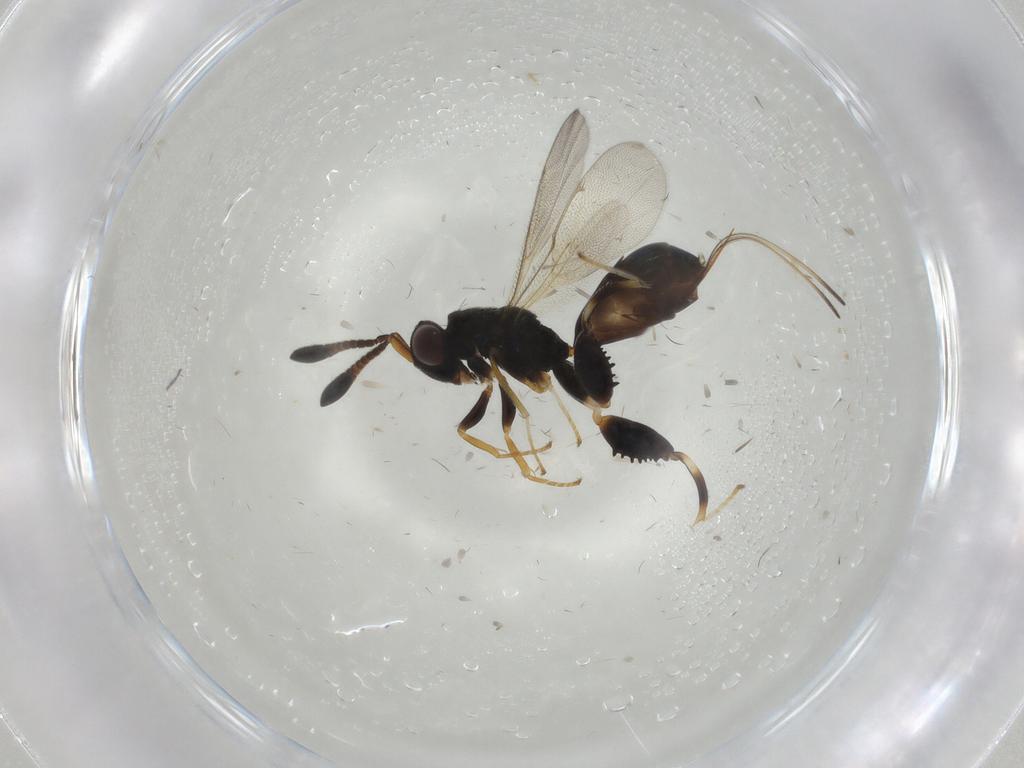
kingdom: Animalia
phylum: Arthropoda
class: Insecta
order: Hymenoptera
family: Torymidae
